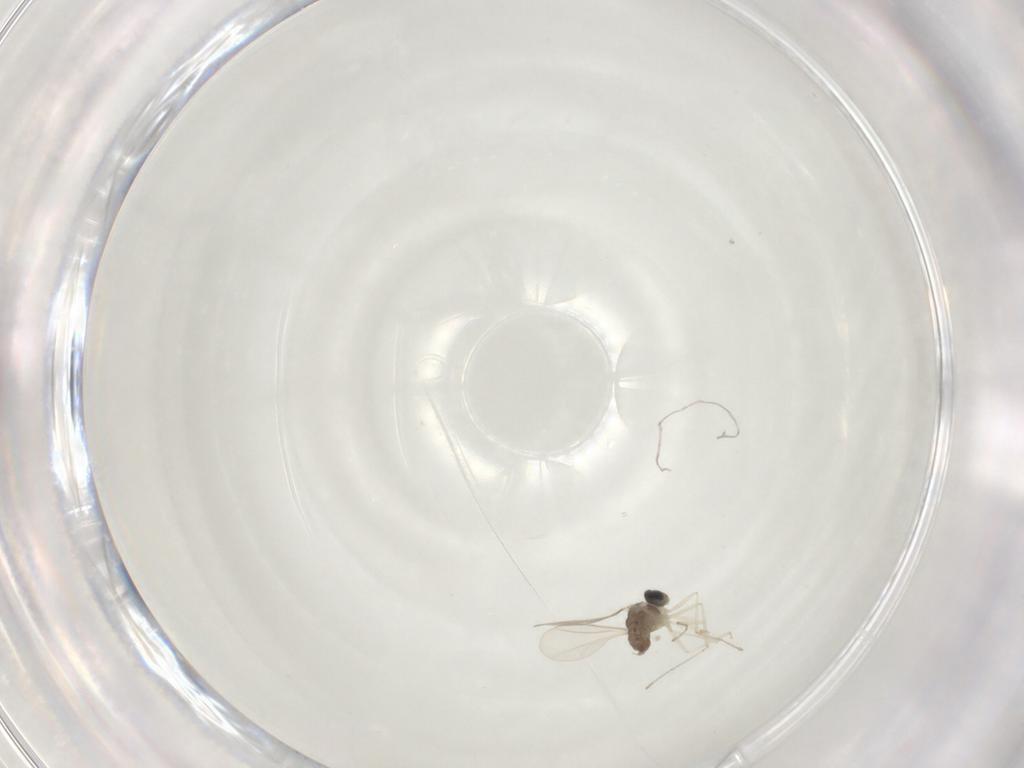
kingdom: Animalia
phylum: Arthropoda
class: Insecta
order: Diptera
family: Cecidomyiidae
